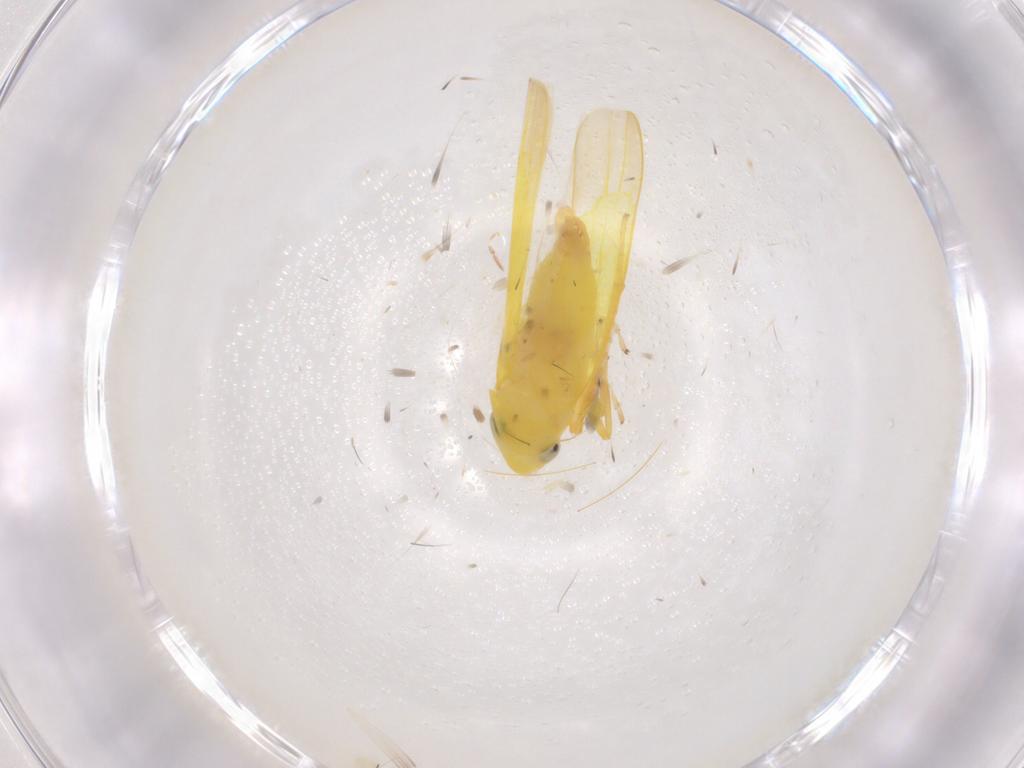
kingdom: Animalia
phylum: Arthropoda
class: Insecta
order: Hemiptera
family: Cicadellidae
